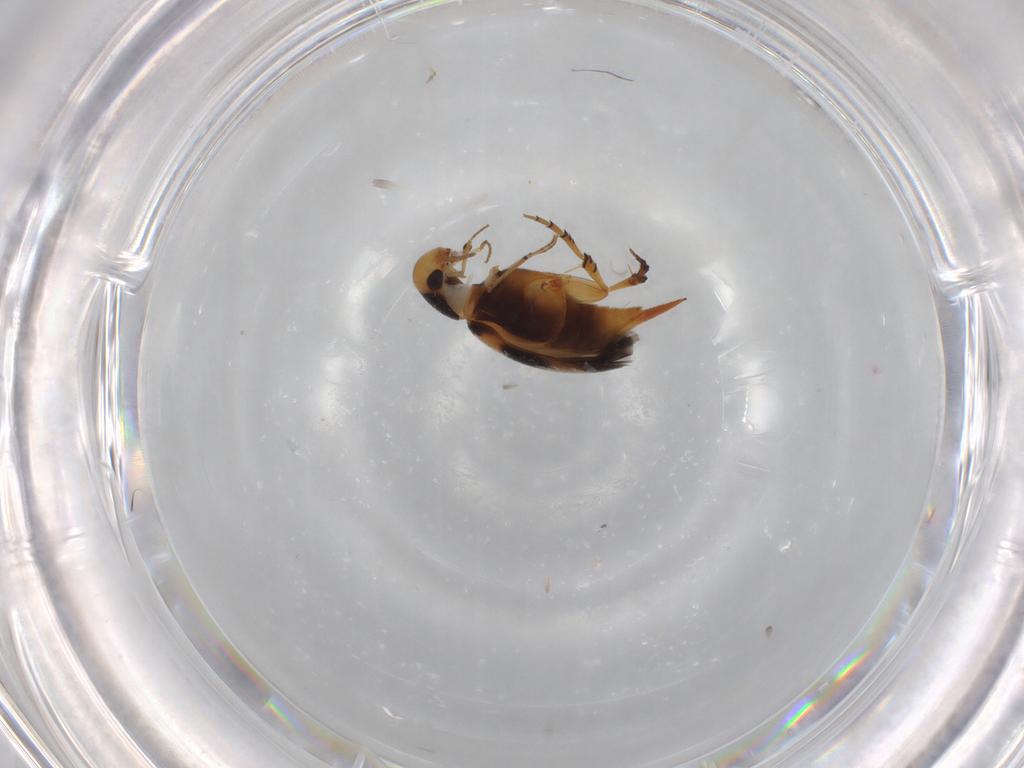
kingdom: Animalia
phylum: Arthropoda
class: Insecta
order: Coleoptera
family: Mordellidae
